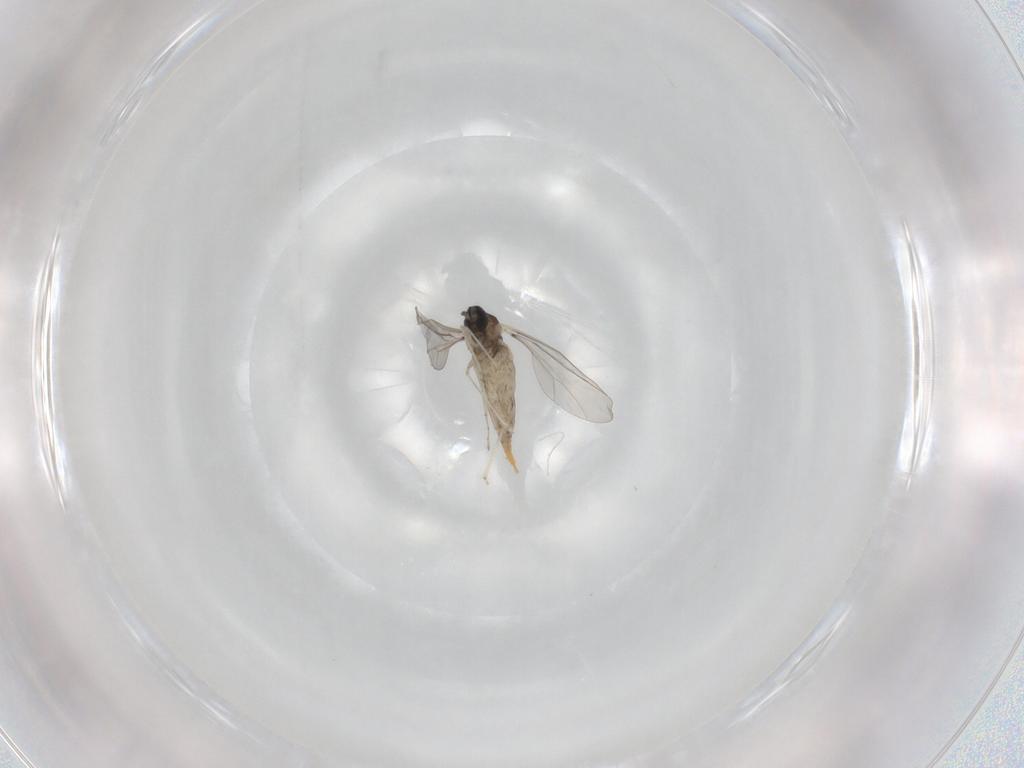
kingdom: Animalia
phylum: Arthropoda
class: Insecta
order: Diptera
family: Cecidomyiidae
